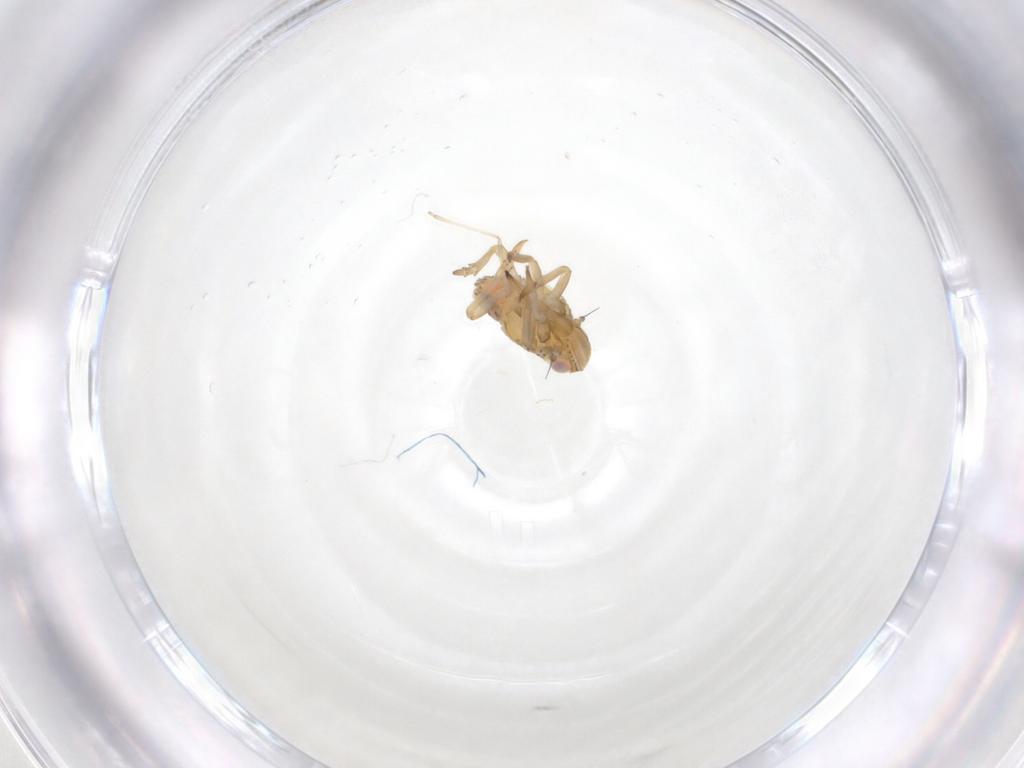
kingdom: Animalia
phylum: Arthropoda
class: Insecta
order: Hemiptera
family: Tropiduchidae
